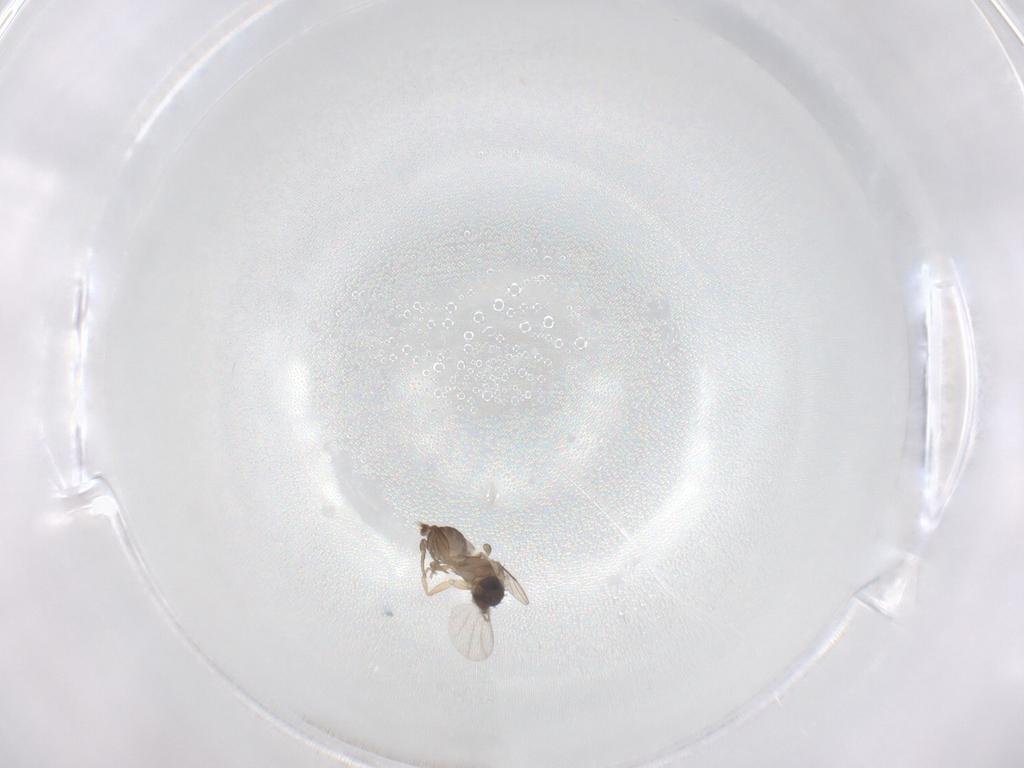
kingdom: Animalia
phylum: Arthropoda
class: Insecta
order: Diptera
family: Phoridae
